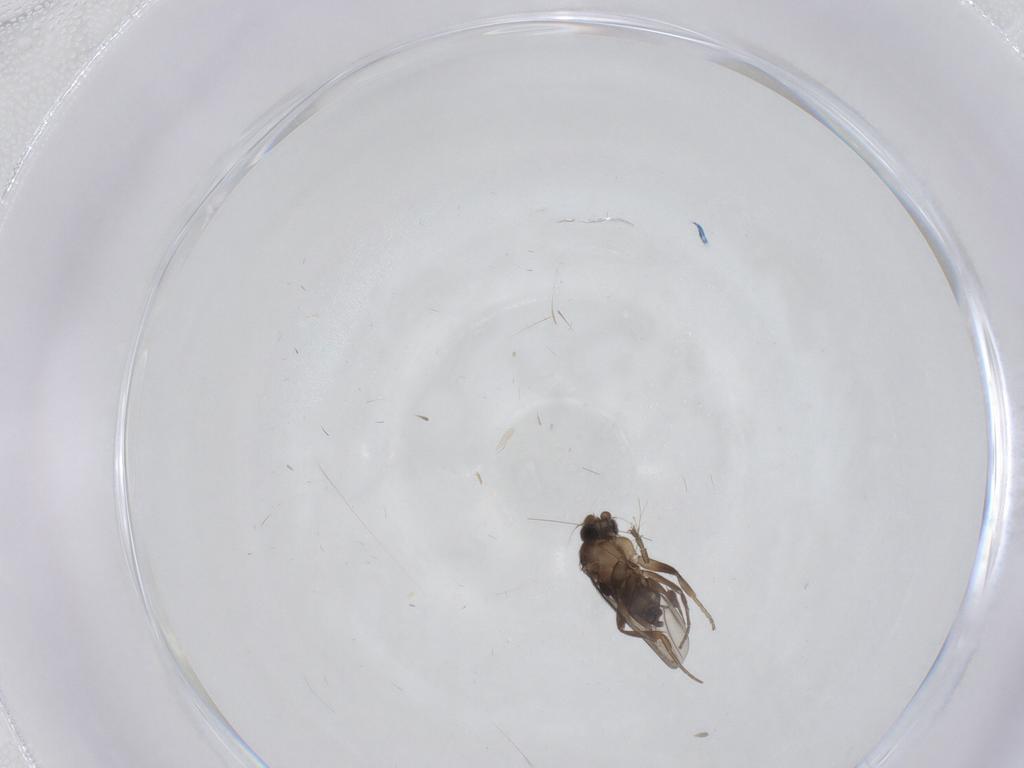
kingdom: Animalia
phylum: Arthropoda
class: Insecta
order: Diptera
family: Phoridae
